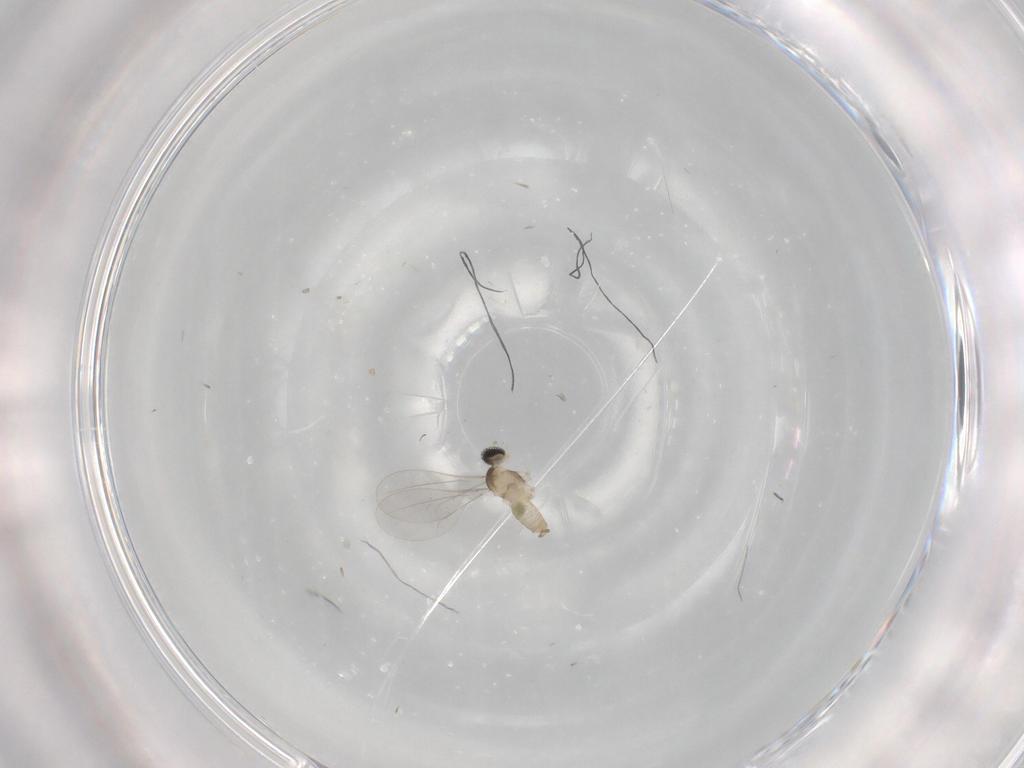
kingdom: Animalia
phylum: Arthropoda
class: Insecta
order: Diptera
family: Cecidomyiidae
